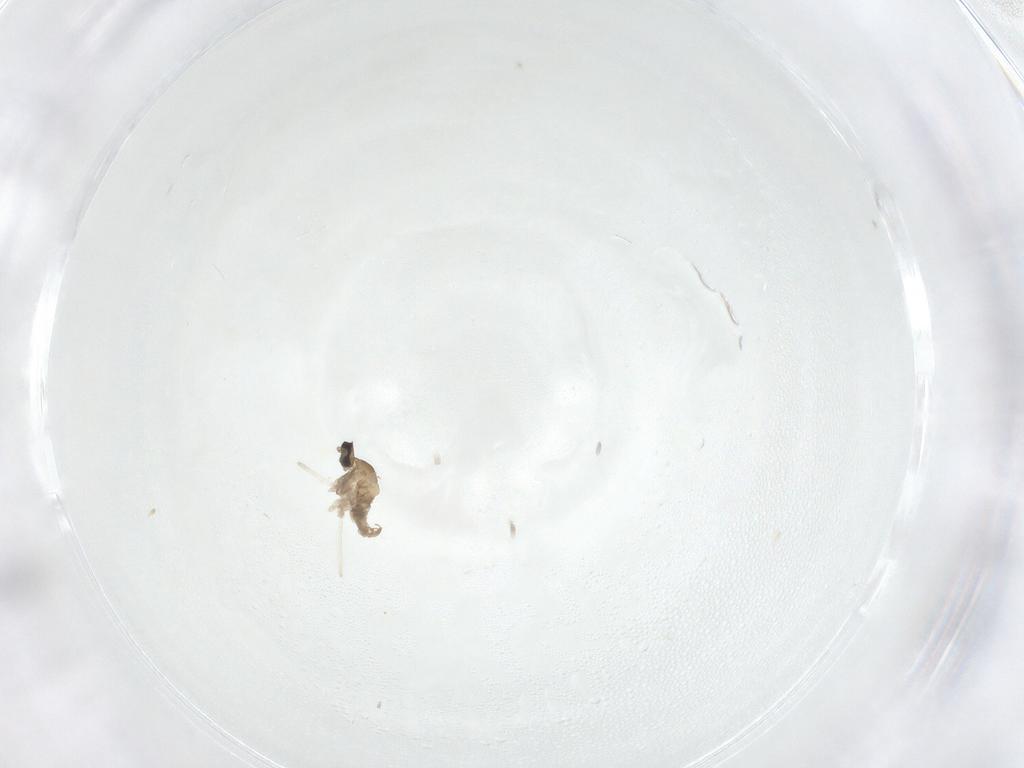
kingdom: Animalia
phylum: Arthropoda
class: Insecta
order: Diptera
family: Cecidomyiidae
